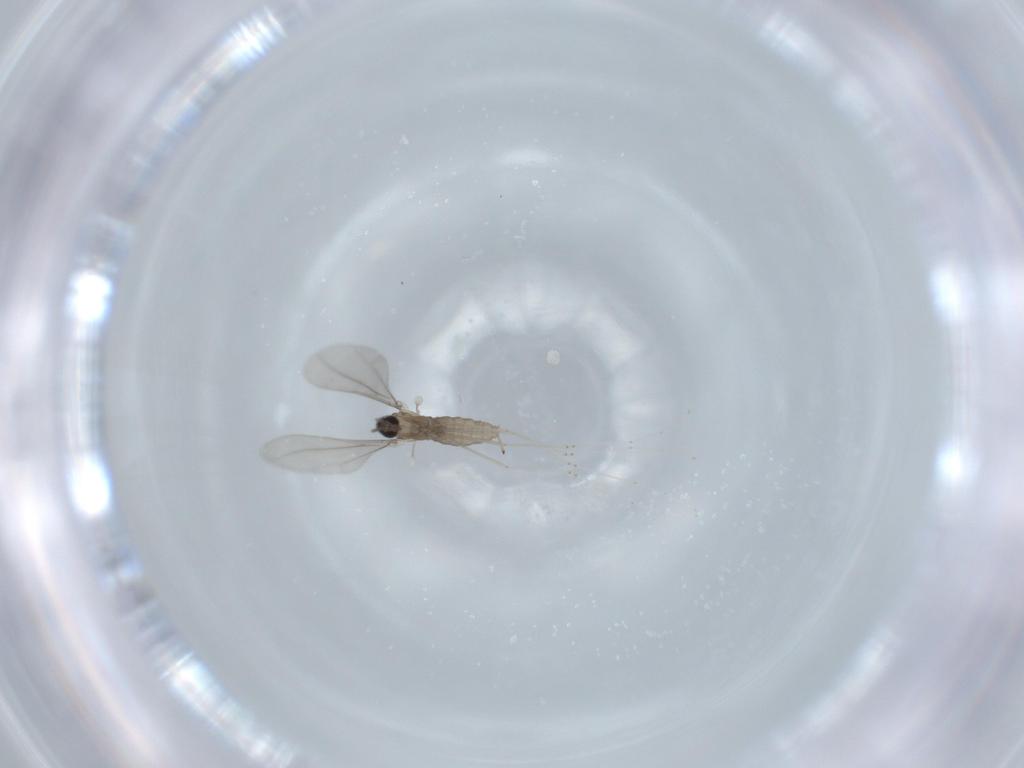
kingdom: Animalia
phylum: Arthropoda
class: Insecta
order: Diptera
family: Cecidomyiidae
